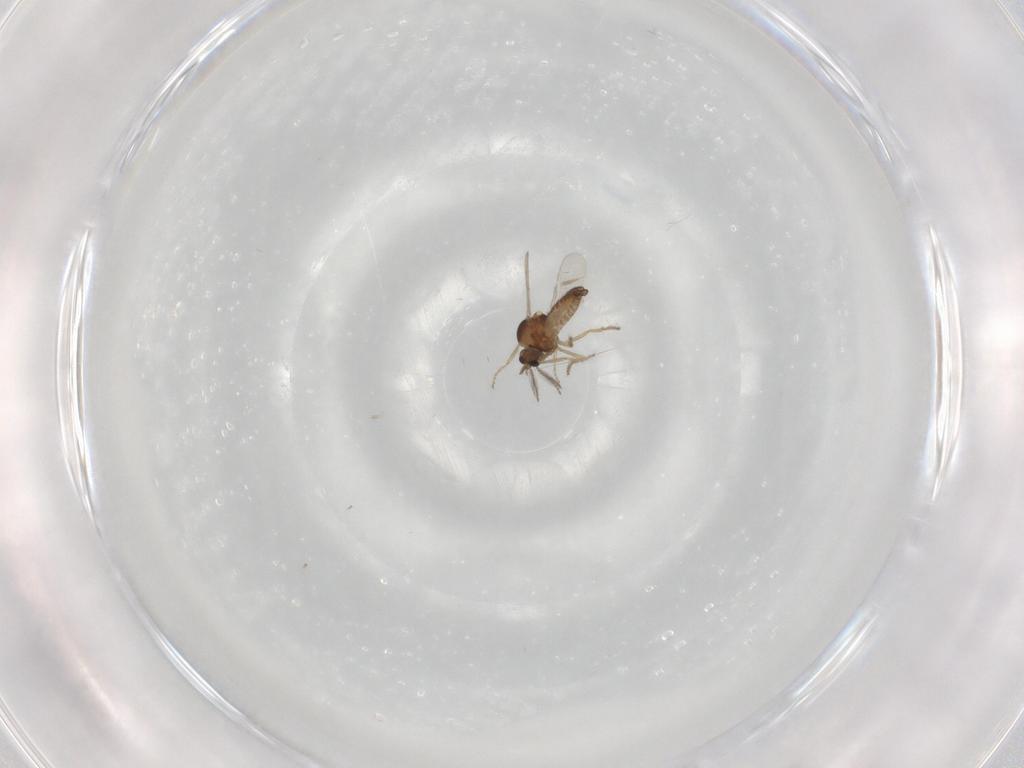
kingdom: Animalia
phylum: Arthropoda
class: Insecta
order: Diptera
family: Ceratopogonidae
